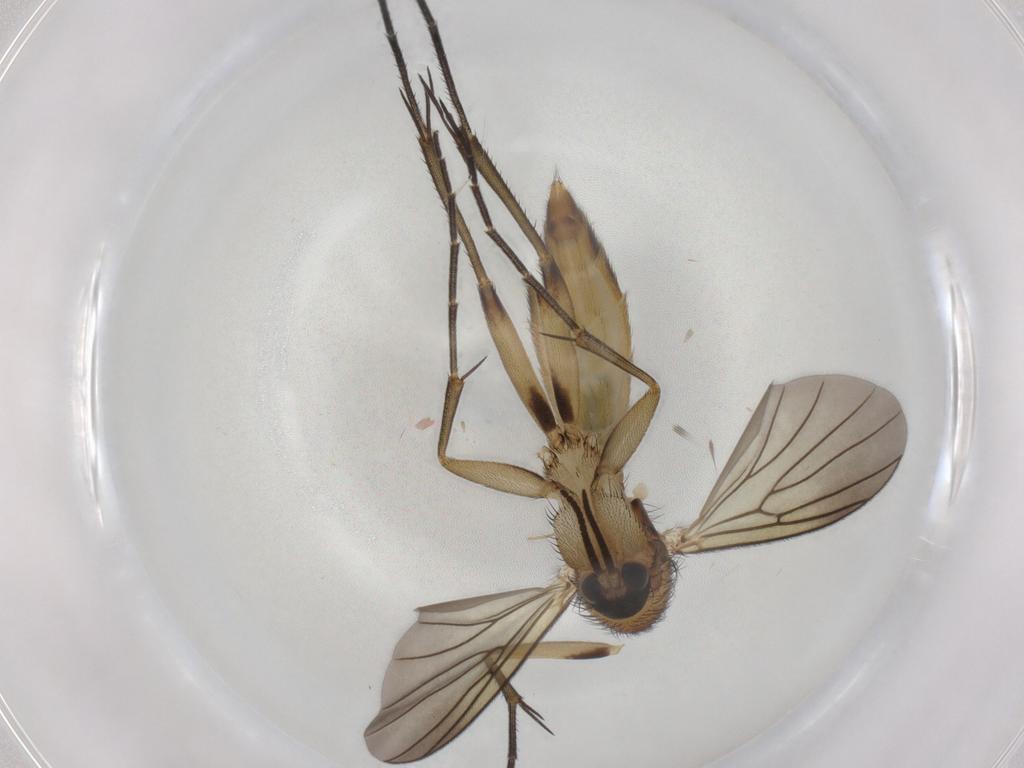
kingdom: Animalia
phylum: Arthropoda
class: Insecta
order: Diptera
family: Mycetophilidae
